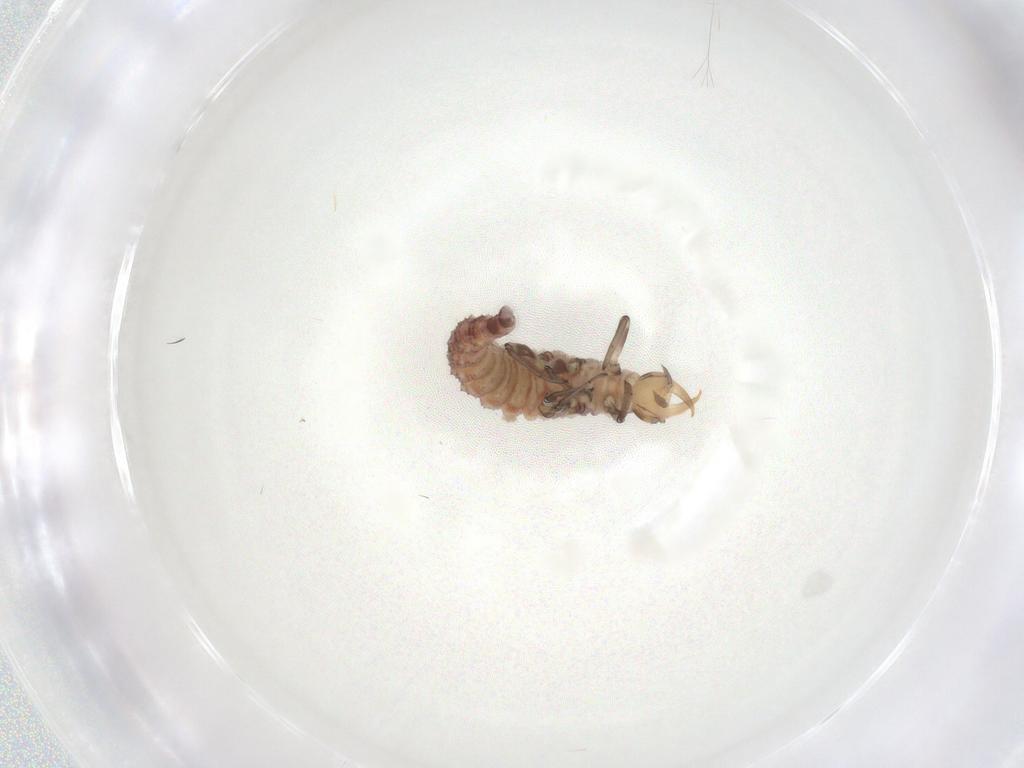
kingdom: Animalia
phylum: Arthropoda
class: Insecta
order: Neuroptera
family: Hemerobiidae
